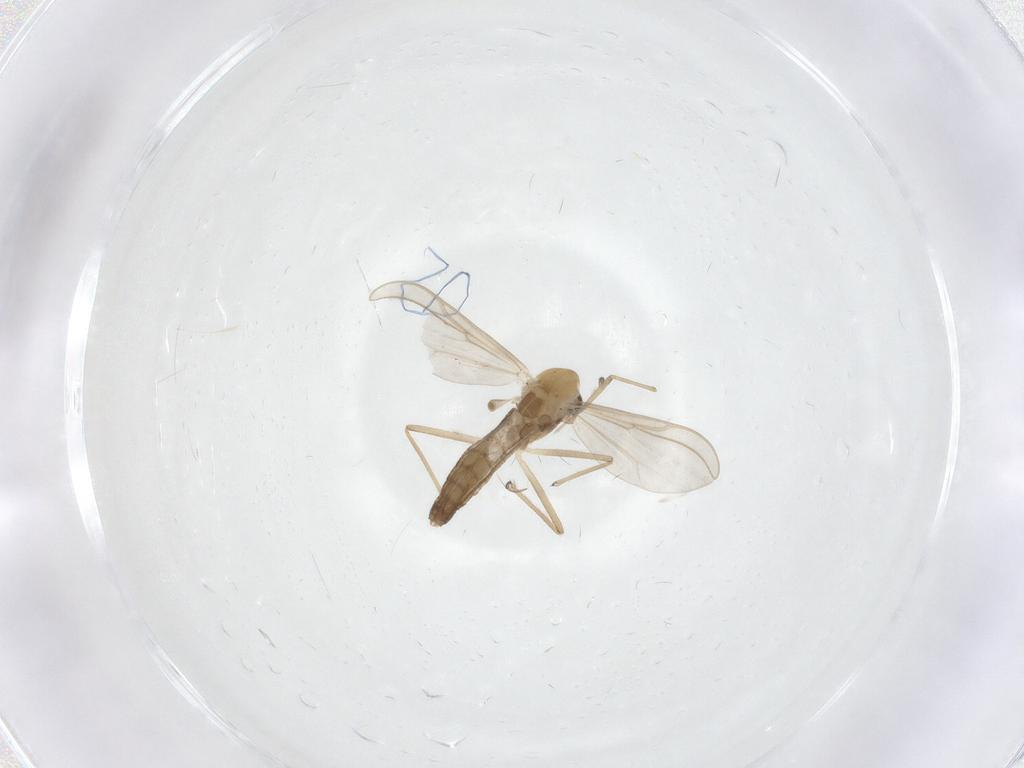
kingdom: Animalia
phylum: Arthropoda
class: Insecta
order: Diptera
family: Chironomidae
